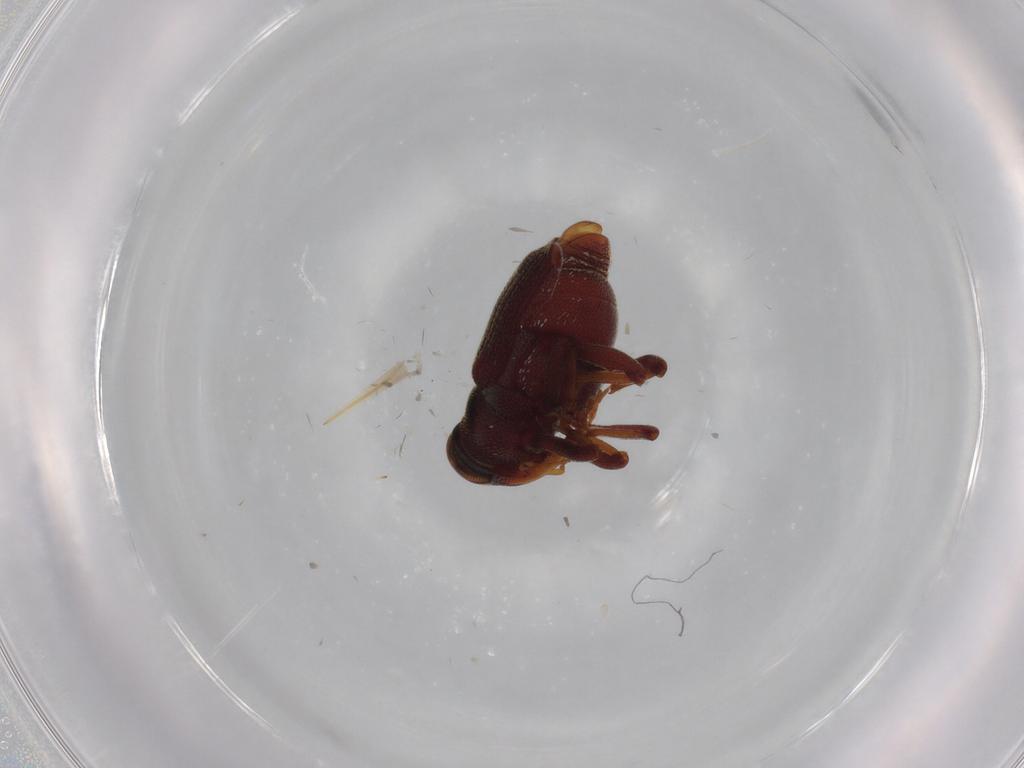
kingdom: Animalia
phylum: Arthropoda
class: Insecta
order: Coleoptera
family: Curculionidae
